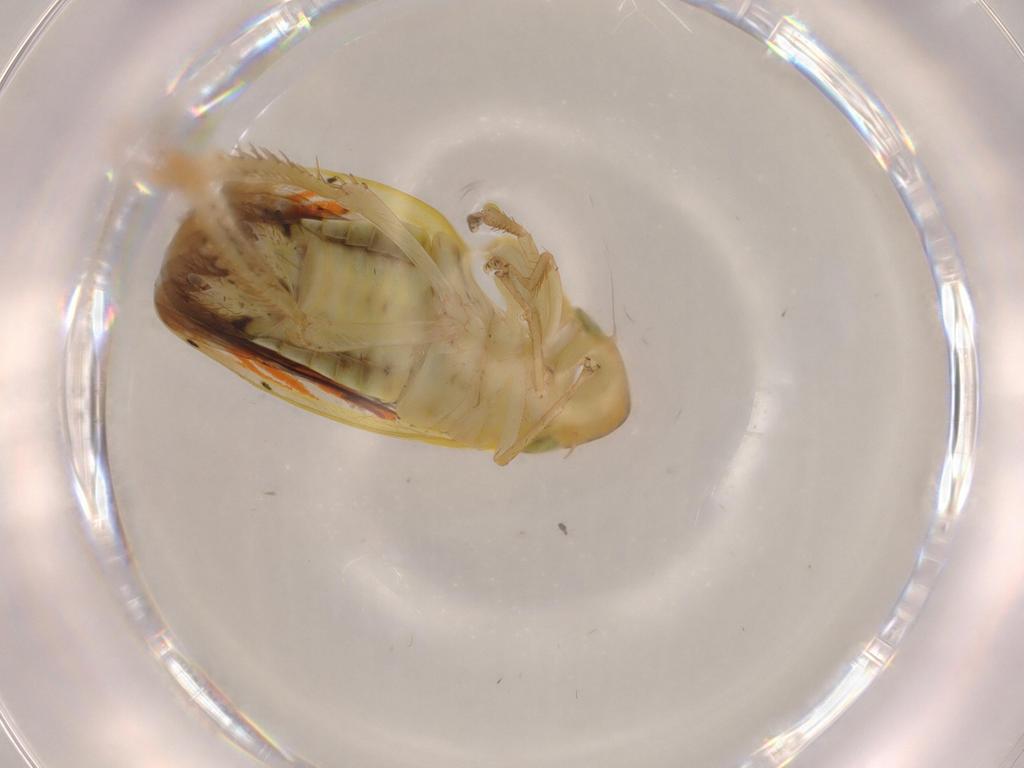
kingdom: Animalia
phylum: Arthropoda
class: Insecta
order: Hemiptera
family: Cicadellidae
